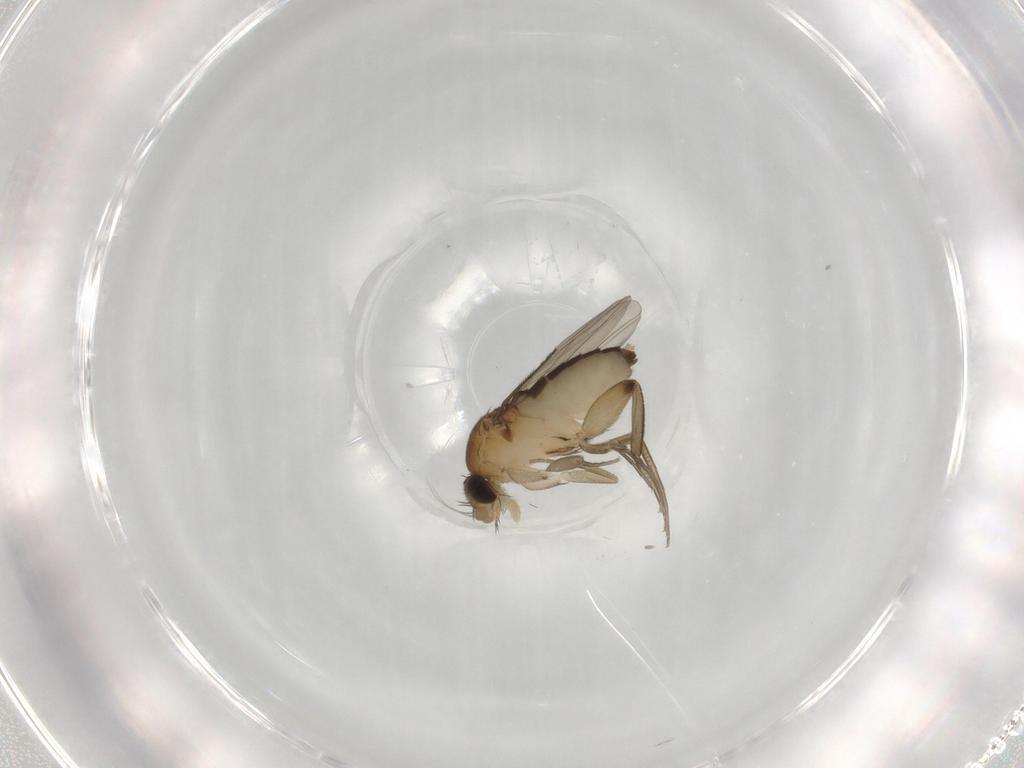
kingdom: Animalia
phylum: Arthropoda
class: Insecta
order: Diptera
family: Phoridae
